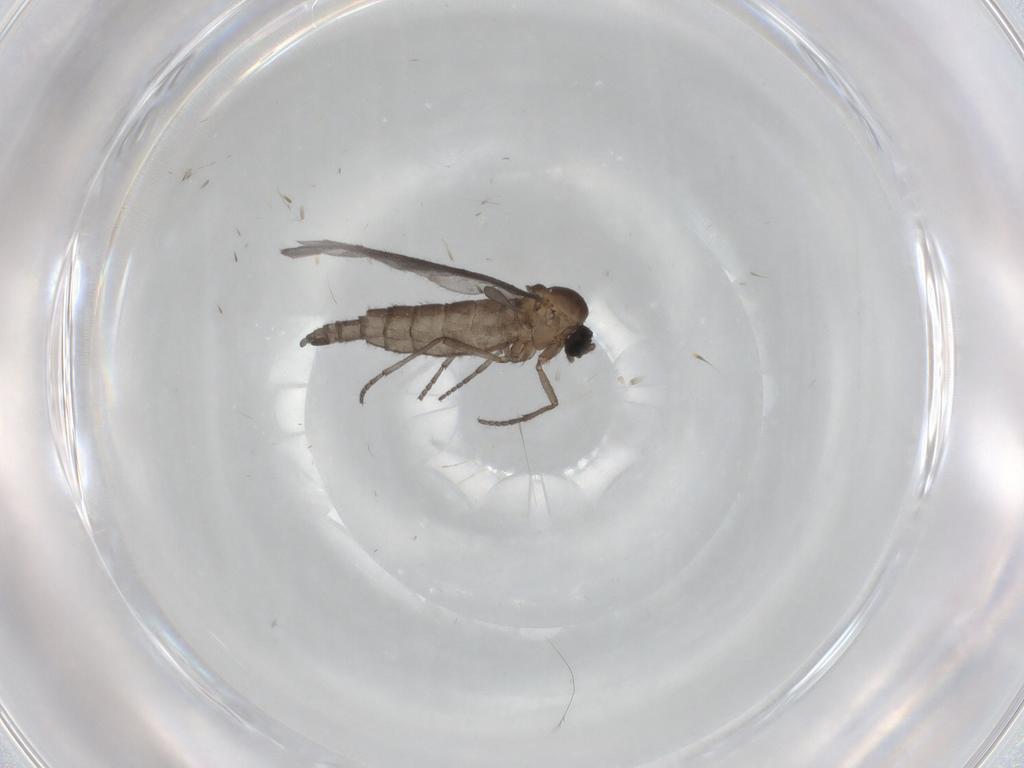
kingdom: Animalia
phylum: Arthropoda
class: Insecta
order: Diptera
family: Sciaridae
